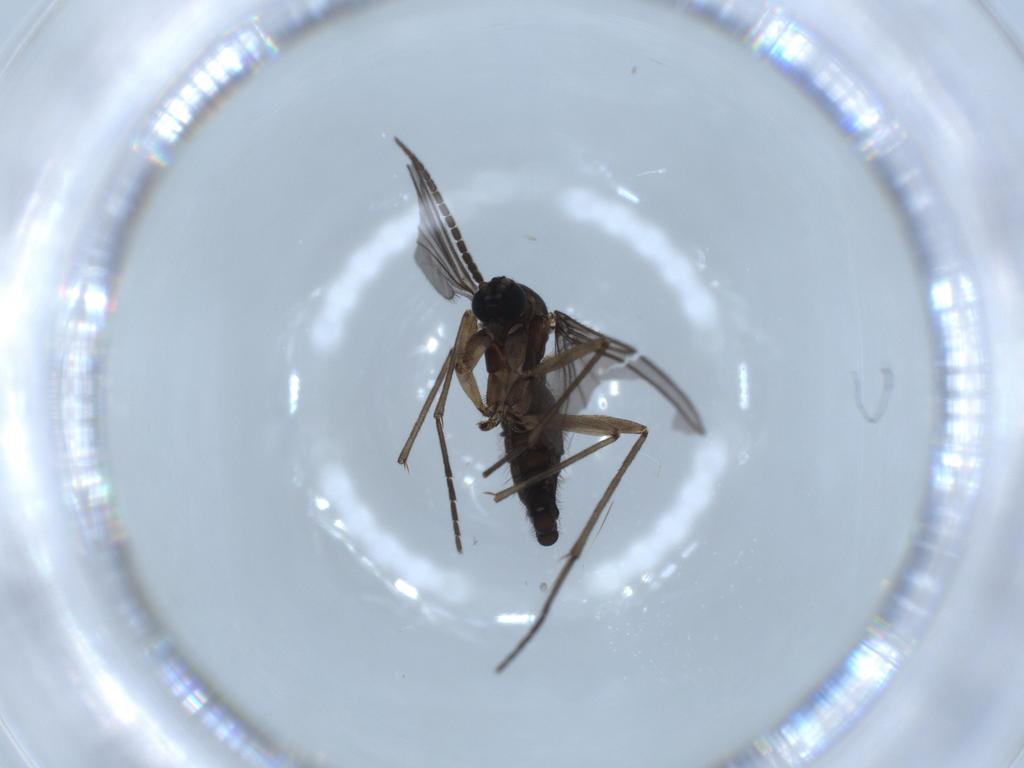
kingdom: Animalia
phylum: Arthropoda
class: Insecta
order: Diptera
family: Sciaridae
